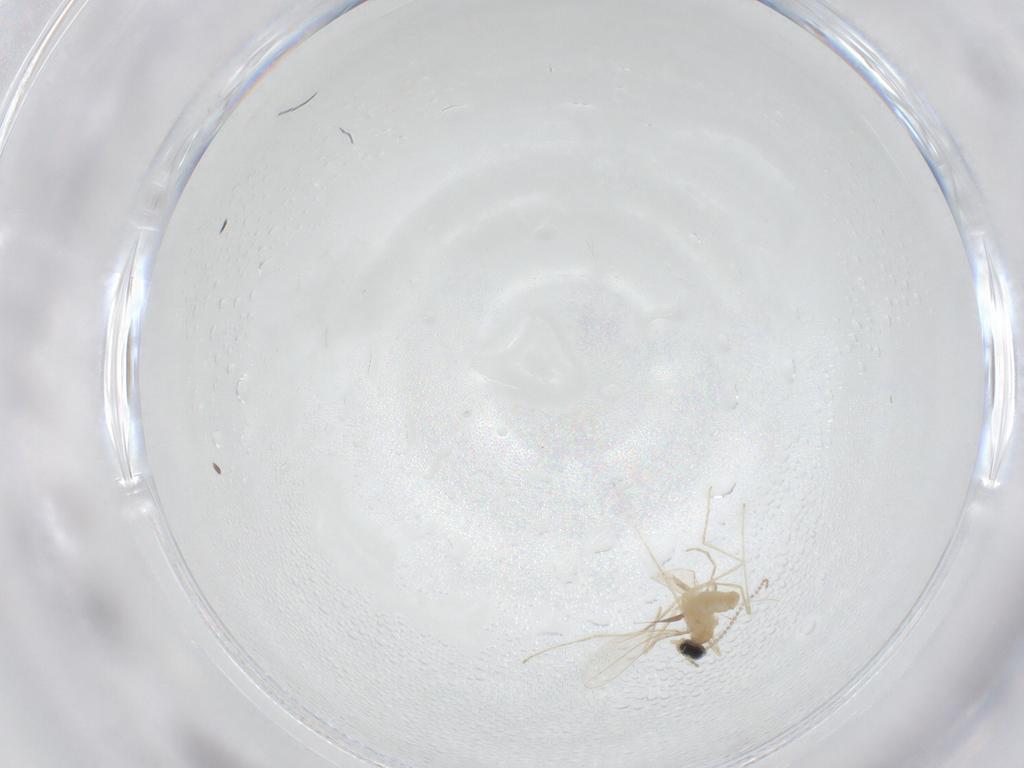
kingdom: Animalia
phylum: Arthropoda
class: Insecta
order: Diptera
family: Cecidomyiidae
